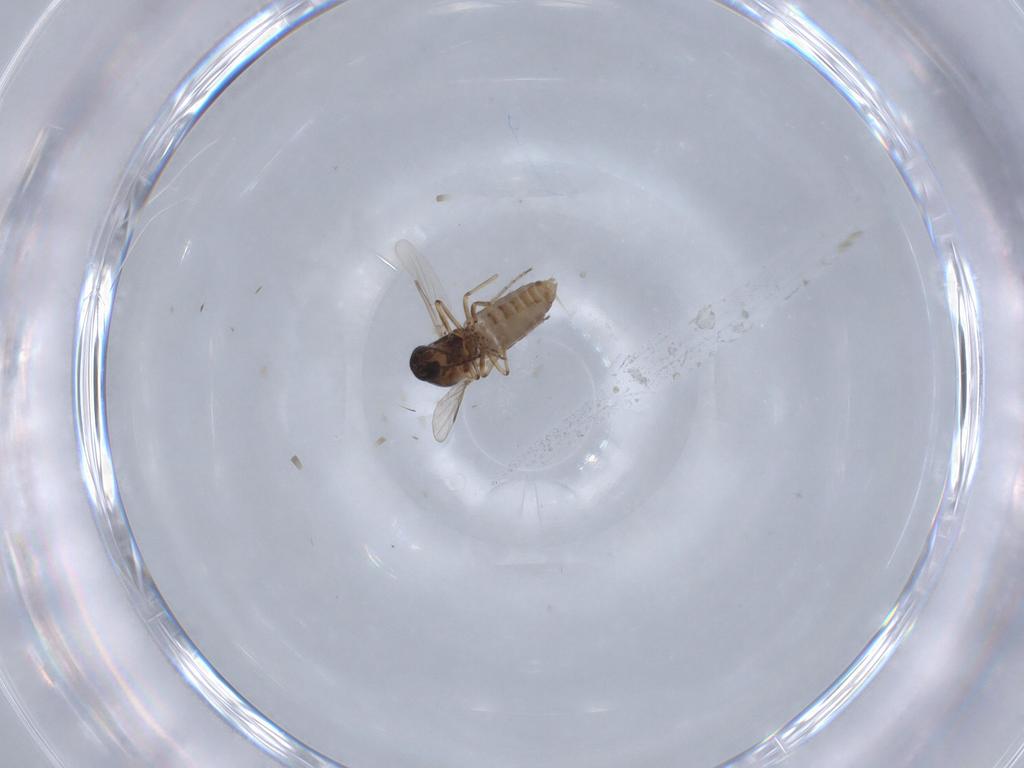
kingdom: Animalia
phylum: Arthropoda
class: Insecta
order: Diptera
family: Ceratopogonidae
